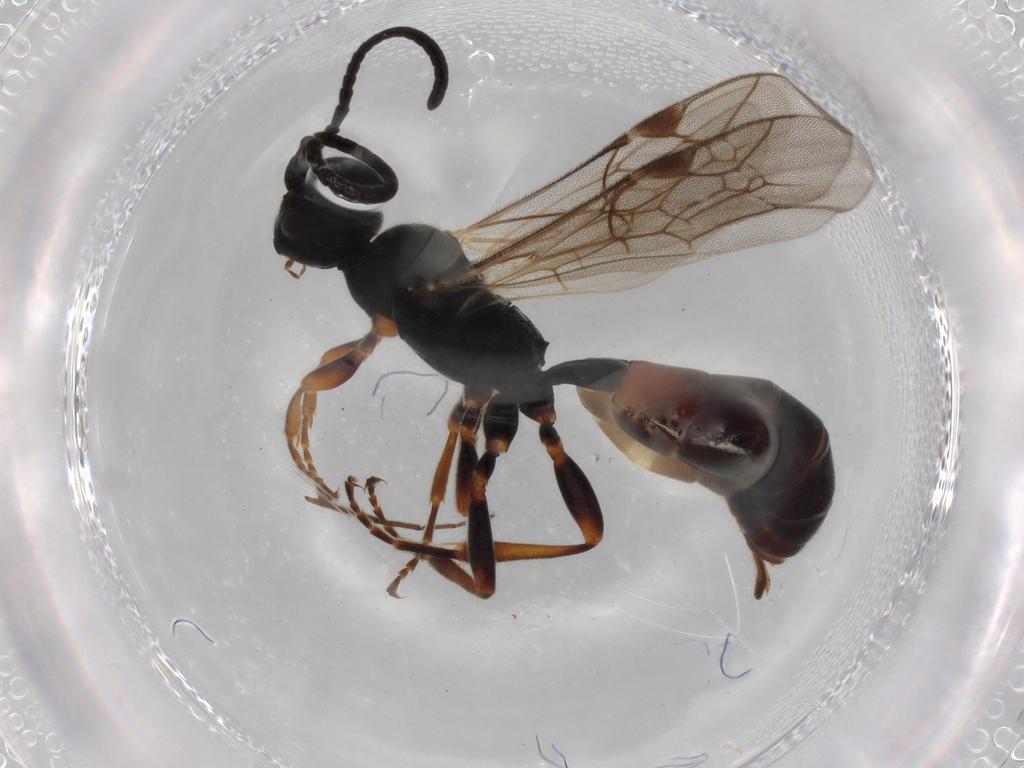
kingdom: Animalia
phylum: Arthropoda
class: Insecta
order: Hymenoptera
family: Ichneumonidae
